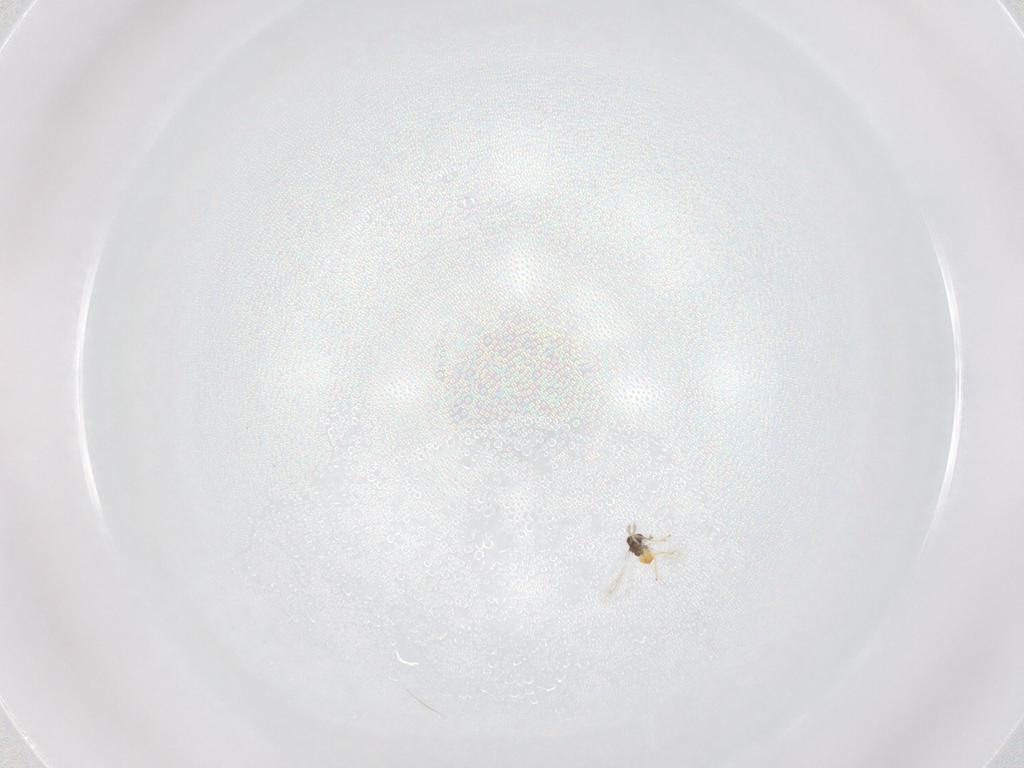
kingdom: Animalia
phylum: Arthropoda
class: Insecta
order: Hymenoptera
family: Eulophidae
